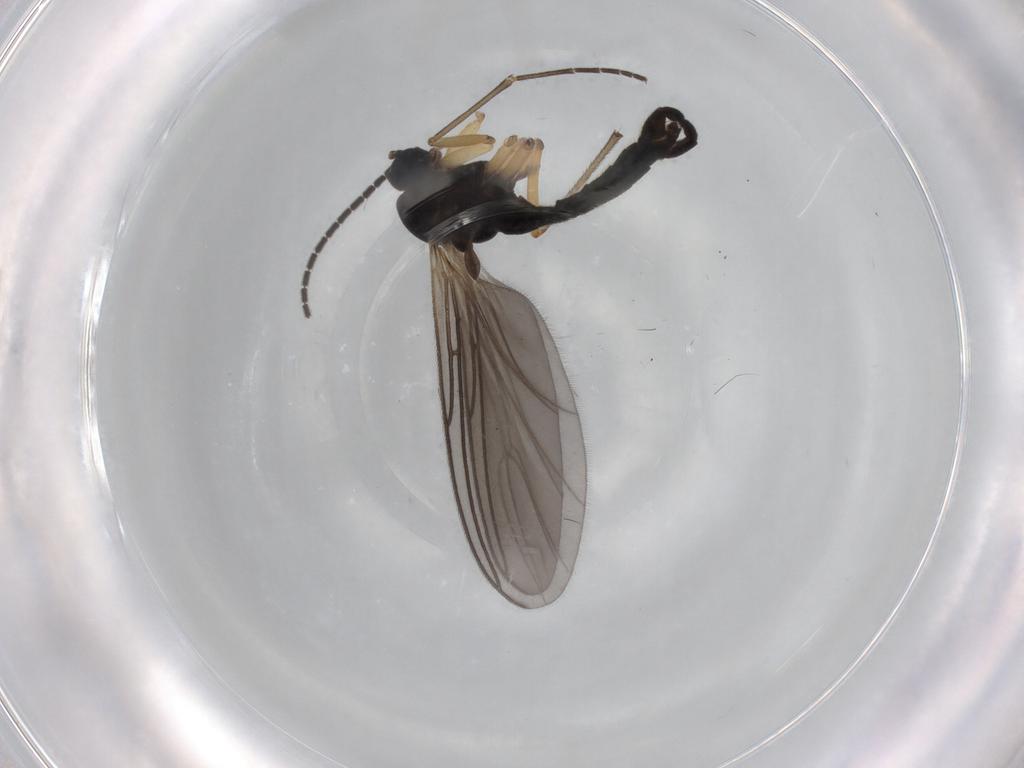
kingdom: Animalia
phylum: Arthropoda
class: Insecta
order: Diptera
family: Sciaridae
